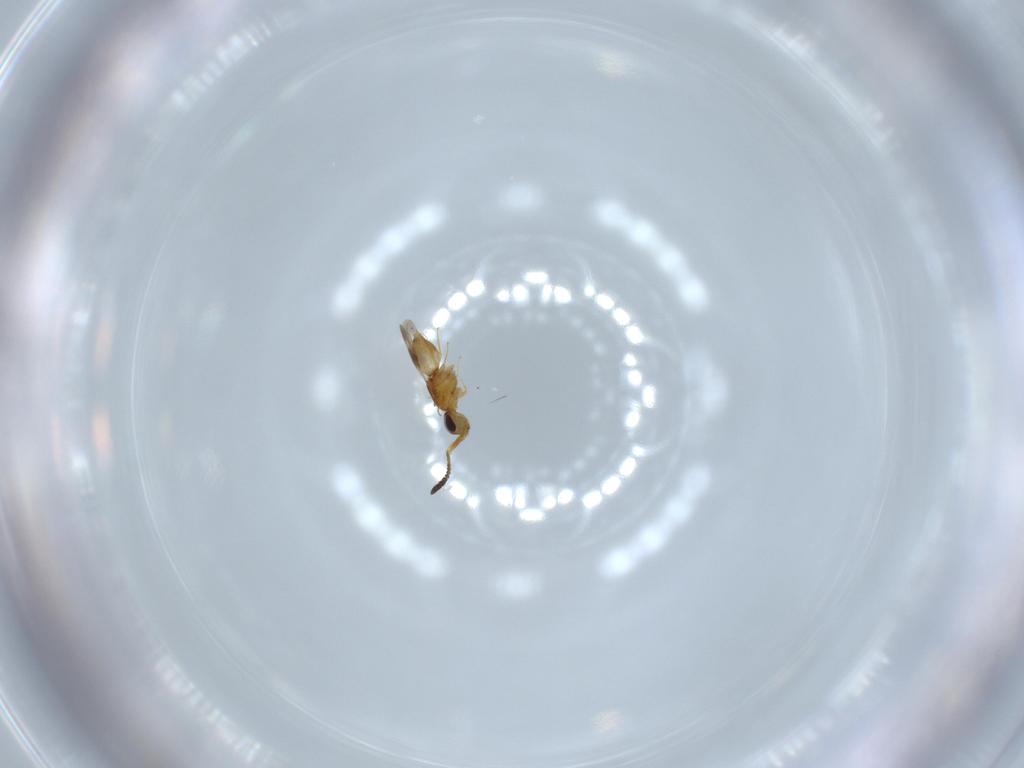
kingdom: Animalia
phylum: Arthropoda
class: Insecta
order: Hymenoptera
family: Ceraphronidae
